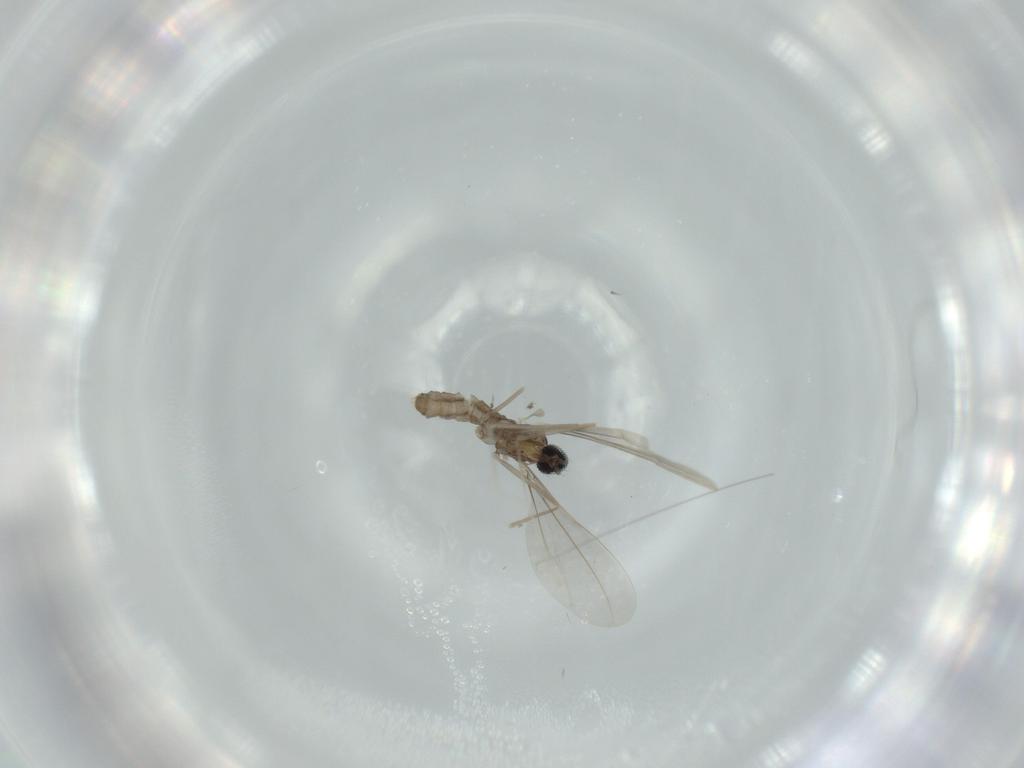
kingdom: Animalia
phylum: Arthropoda
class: Insecta
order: Diptera
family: Cecidomyiidae
